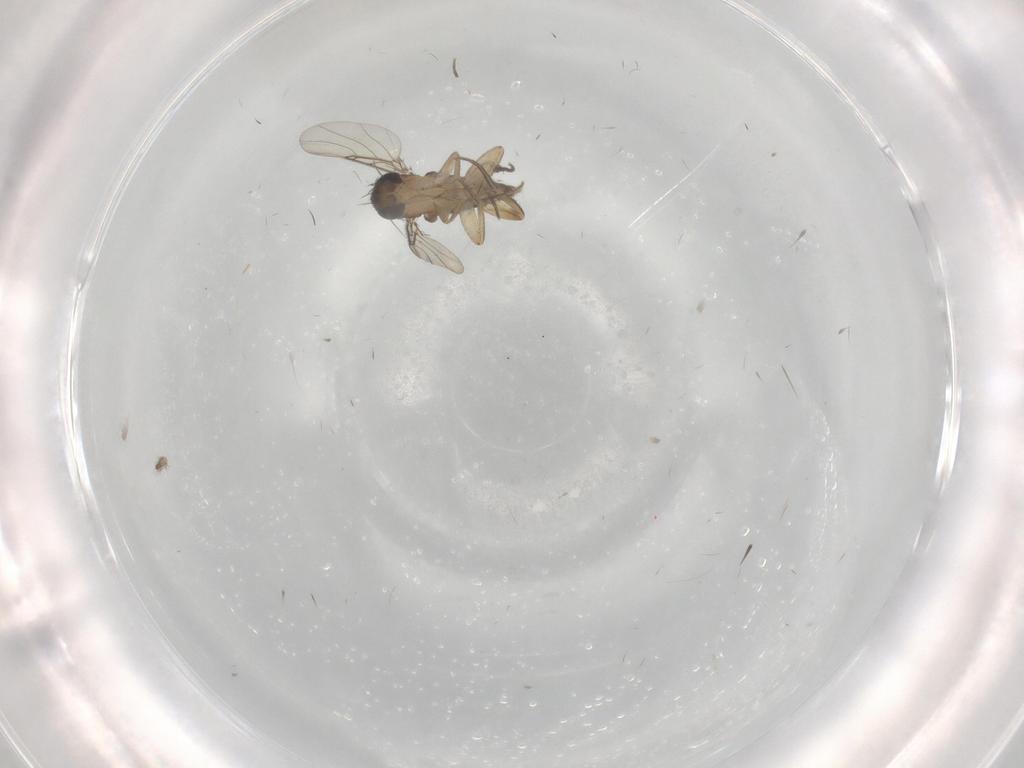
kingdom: Animalia
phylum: Arthropoda
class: Insecta
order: Diptera
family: Phoridae
